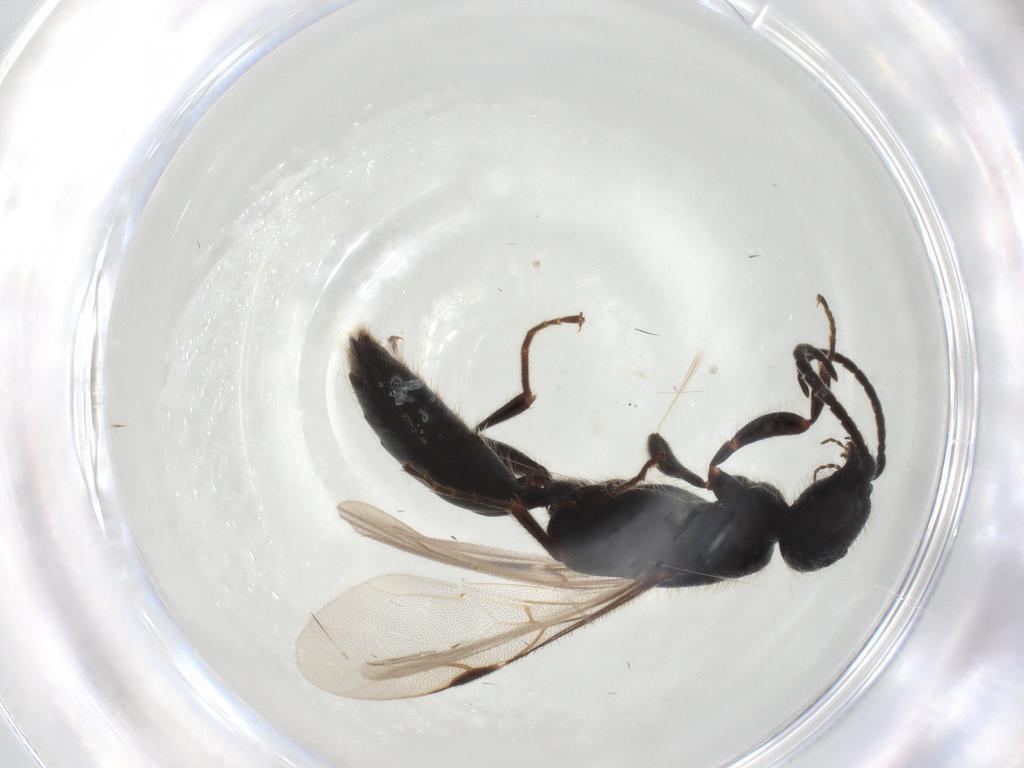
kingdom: Animalia
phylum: Arthropoda
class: Insecta
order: Hymenoptera
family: Bethylidae
